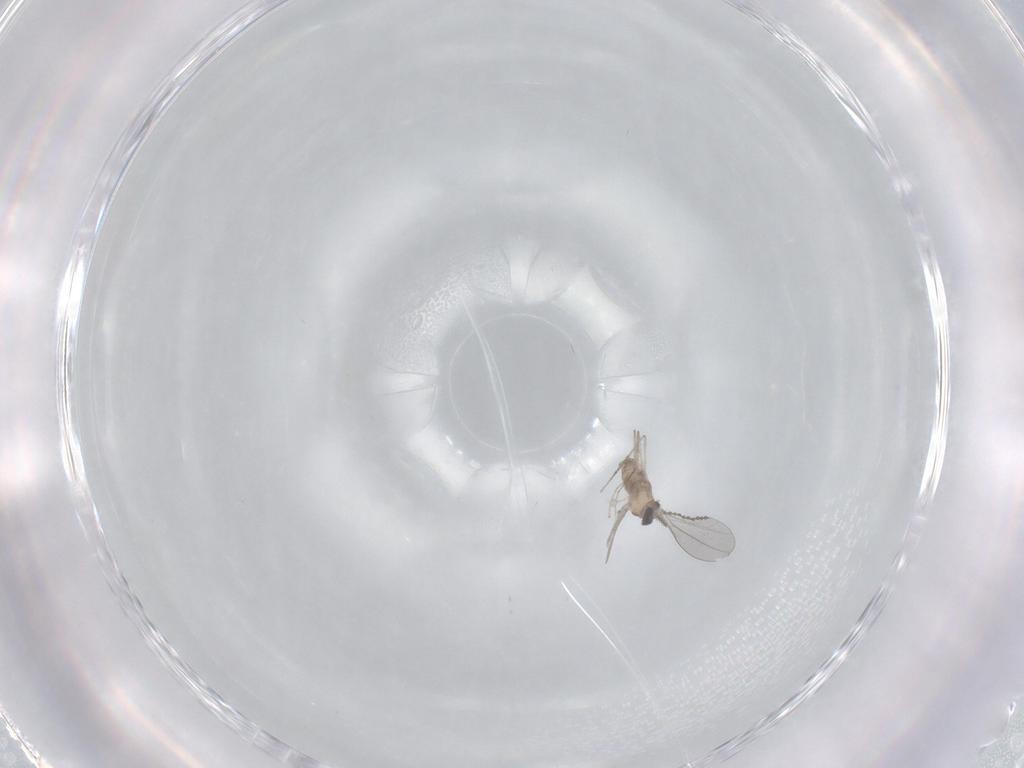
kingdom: Animalia
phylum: Arthropoda
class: Insecta
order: Diptera
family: Cecidomyiidae
